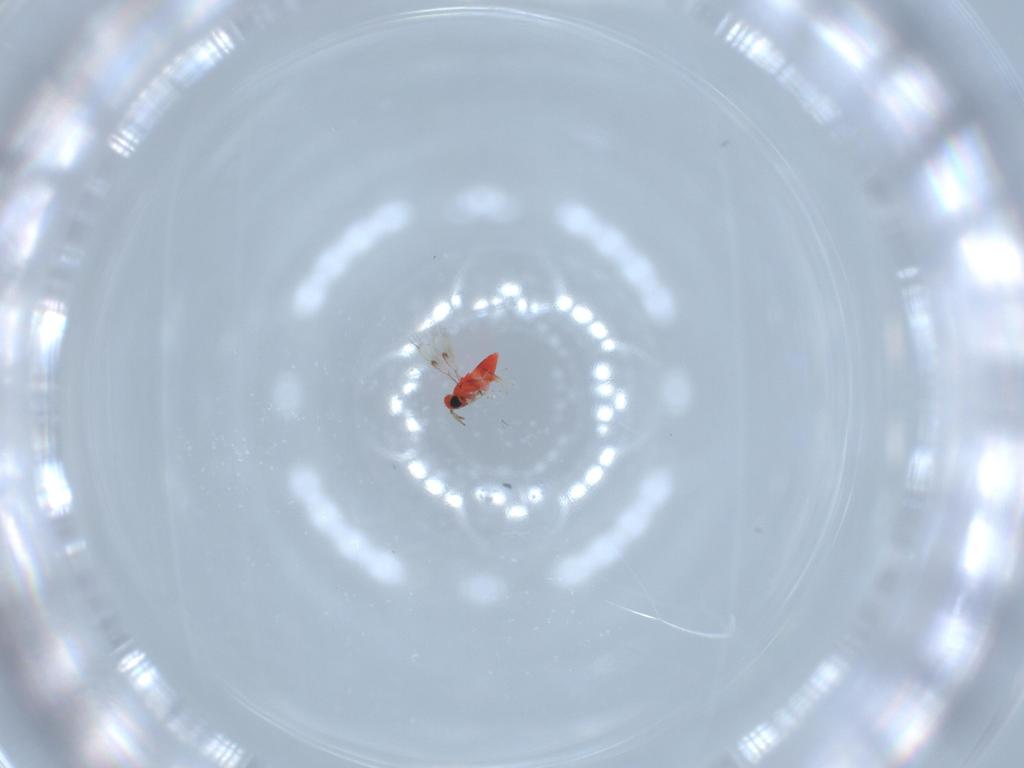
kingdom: Animalia
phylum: Arthropoda
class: Insecta
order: Hymenoptera
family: Trichogrammatidae
